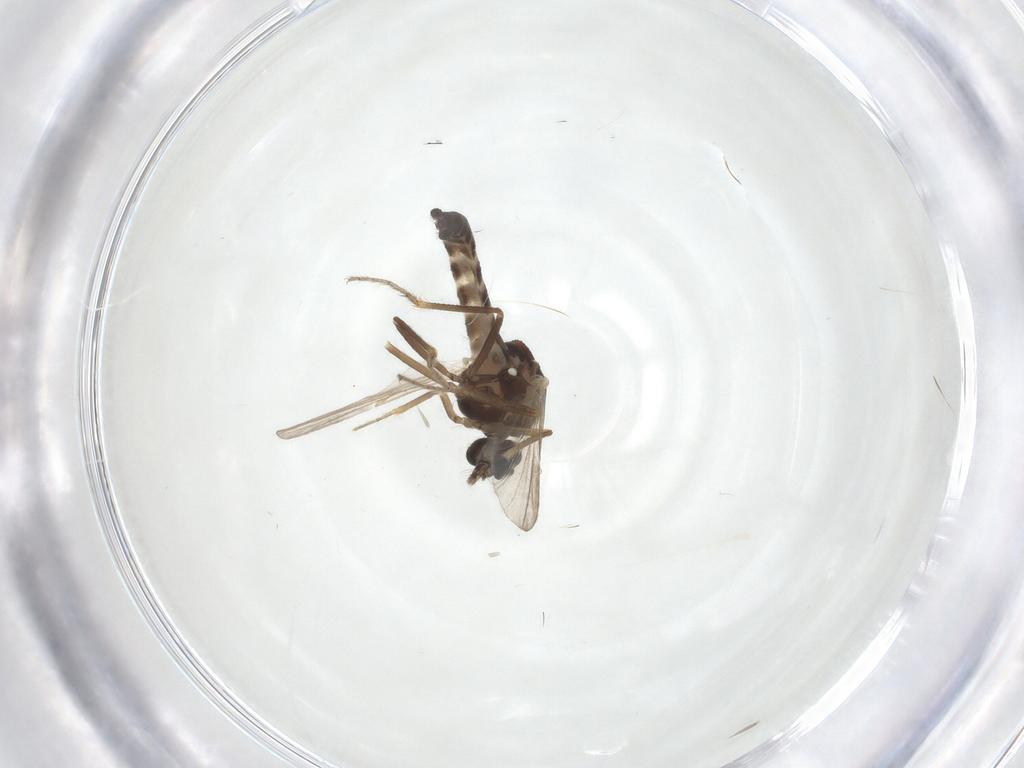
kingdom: Animalia
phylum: Arthropoda
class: Insecta
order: Diptera
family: Ceratopogonidae
